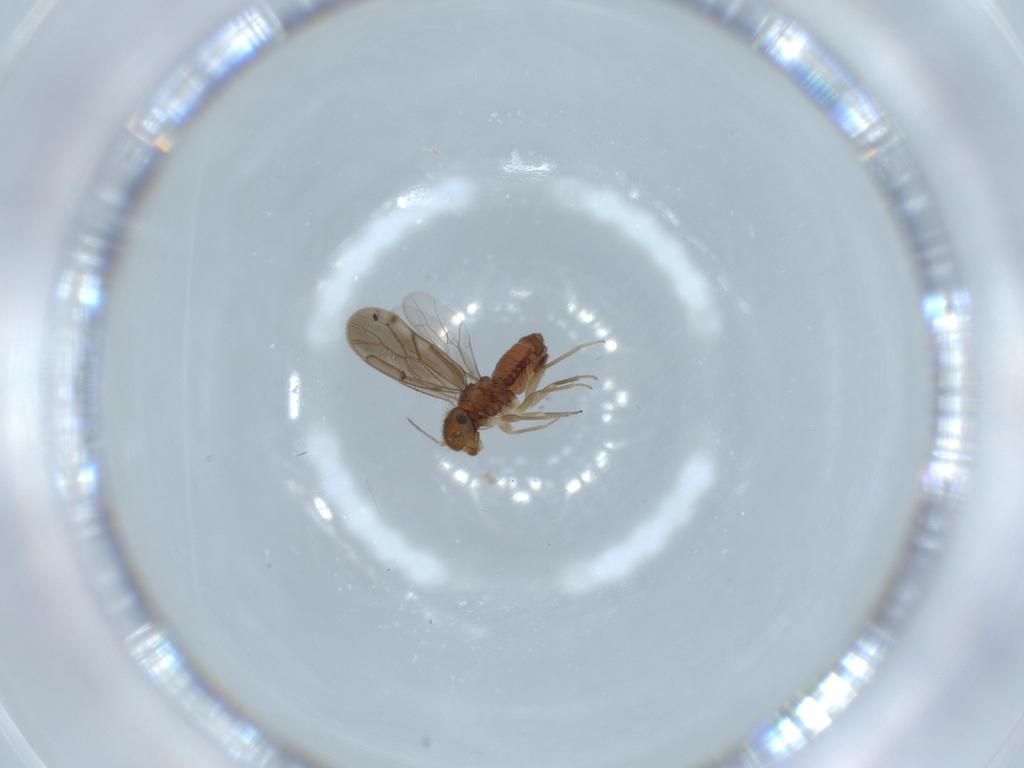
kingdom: Animalia
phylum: Arthropoda
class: Insecta
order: Psocodea
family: Ectopsocidae
